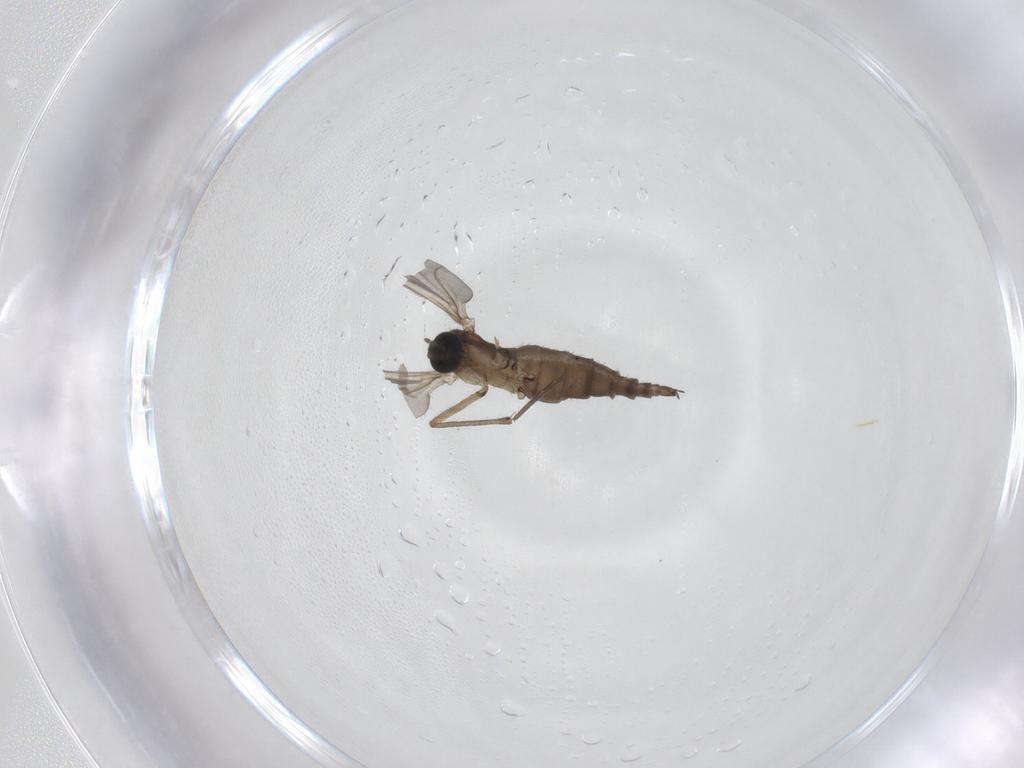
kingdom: Animalia
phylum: Arthropoda
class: Insecta
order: Diptera
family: Sciaridae
